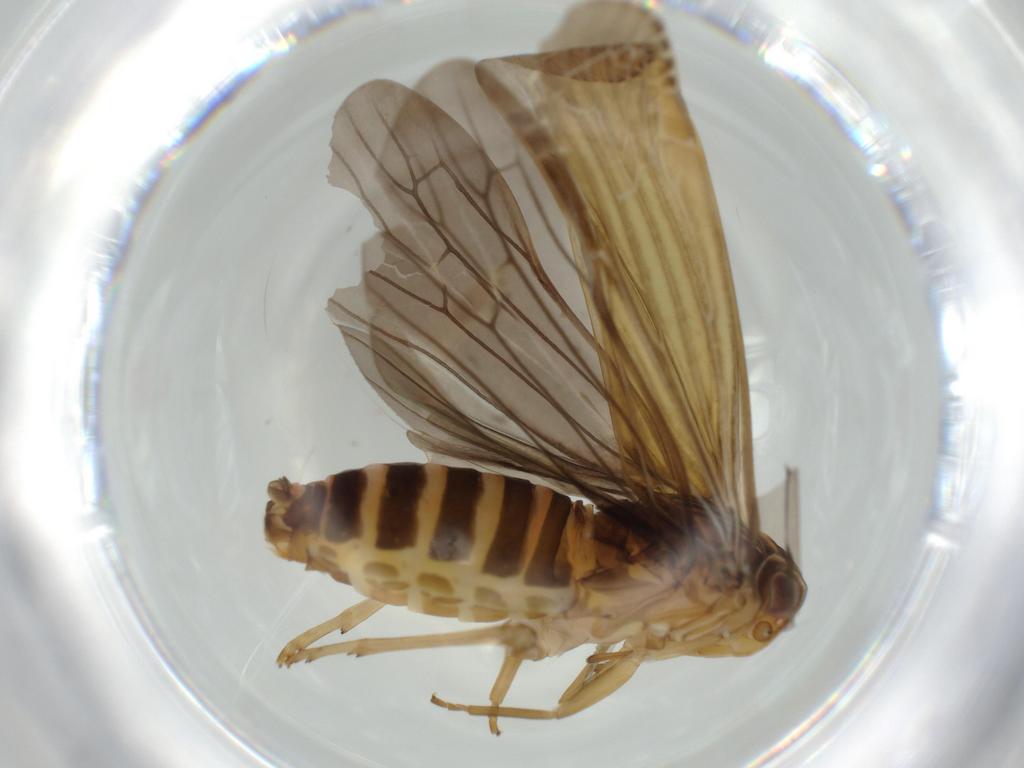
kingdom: Animalia
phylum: Arthropoda
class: Insecta
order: Hemiptera
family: Achilidae
